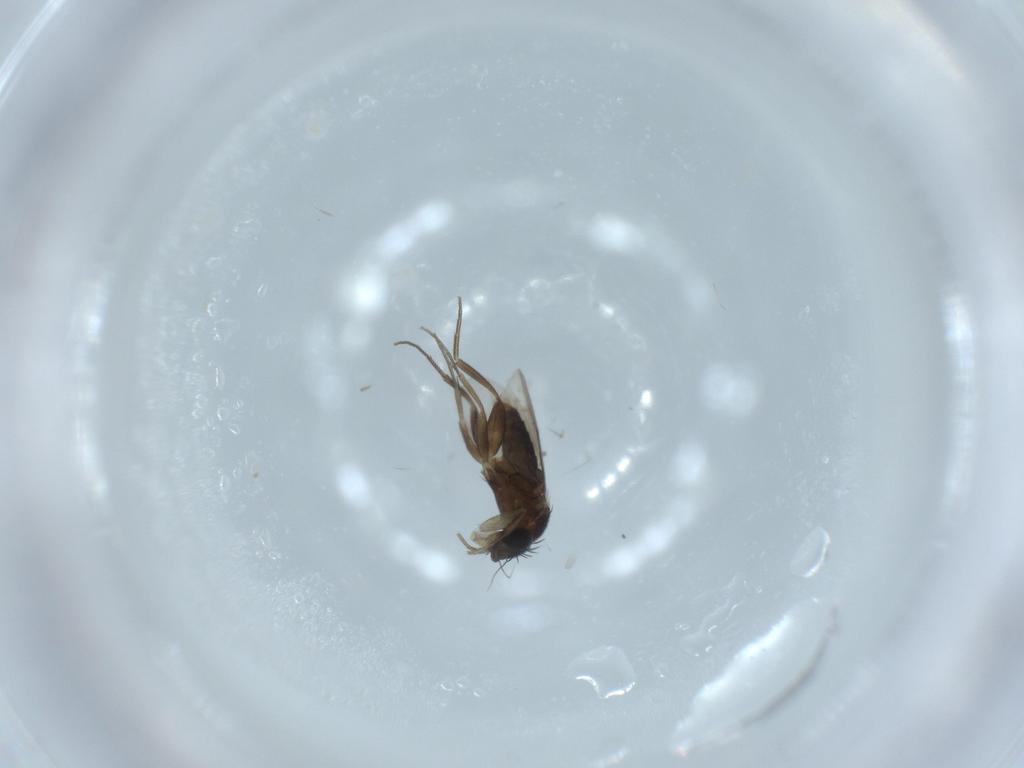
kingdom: Animalia
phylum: Arthropoda
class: Insecta
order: Diptera
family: Phoridae
